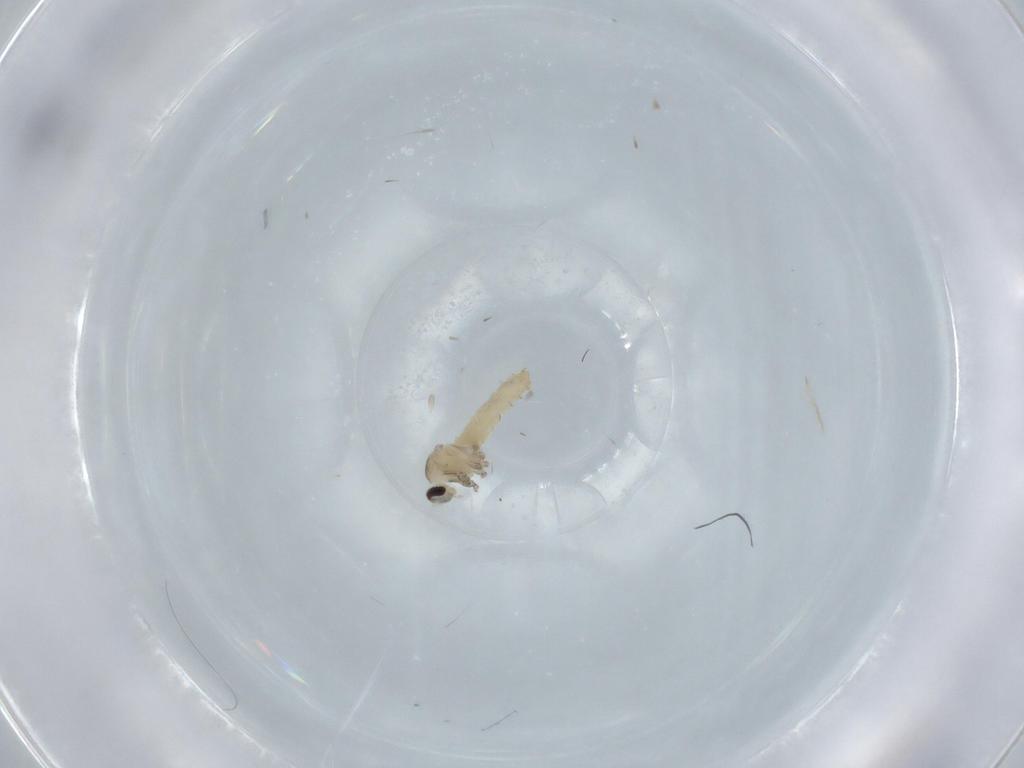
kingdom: Animalia
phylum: Arthropoda
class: Insecta
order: Diptera
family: Cecidomyiidae
